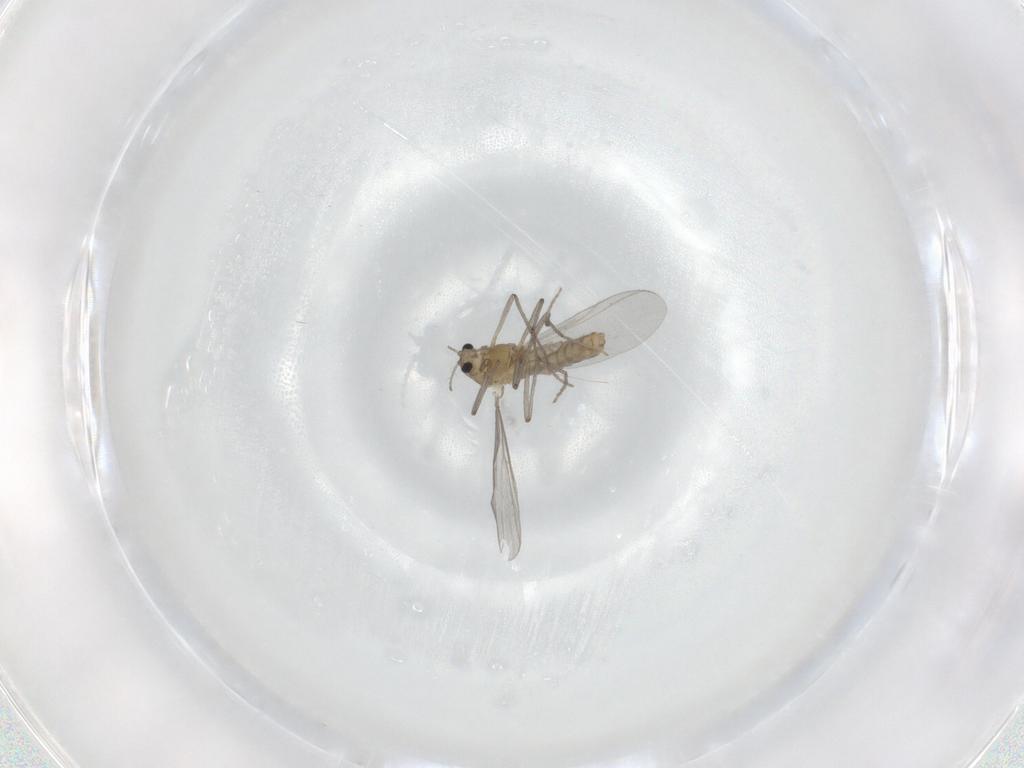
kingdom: Animalia
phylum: Arthropoda
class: Insecta
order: Diptera
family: Chironomidae
